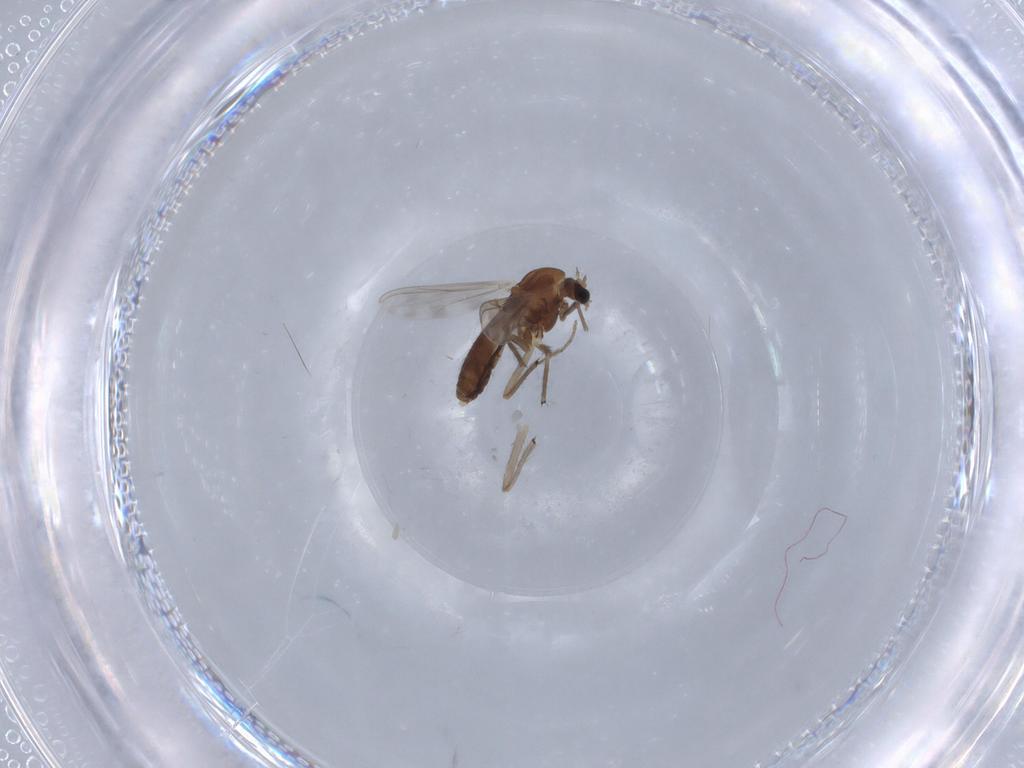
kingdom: Animalia
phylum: Arthropoda
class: Insecta
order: Diptera
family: Chironomidae
